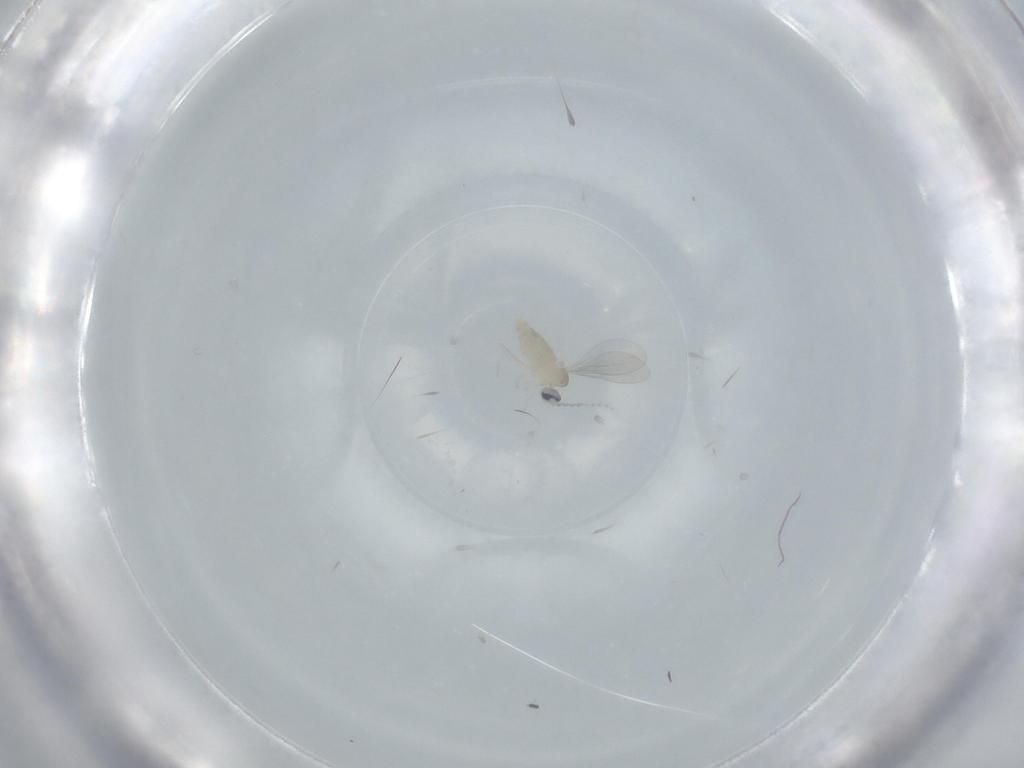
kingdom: Animalia
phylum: Arthropoda
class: Insecta
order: Diptera
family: Cecidomyiidae
